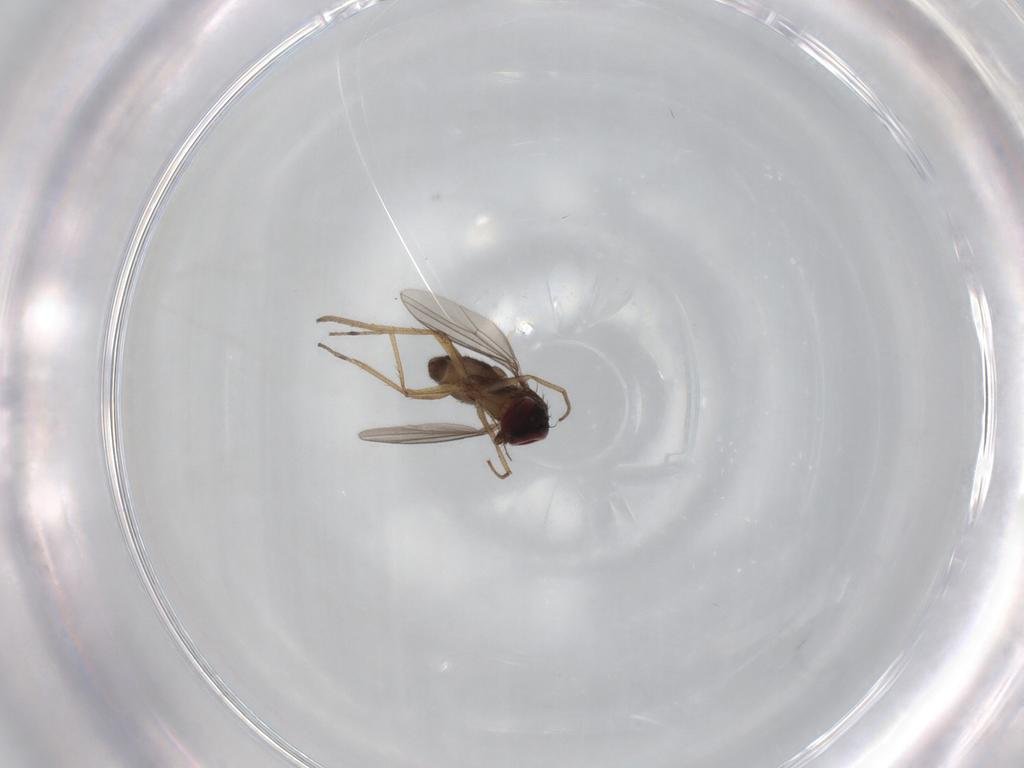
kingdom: Animalia
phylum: Arthropoda
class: Insecta
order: Diptera
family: Dolichopodidae
